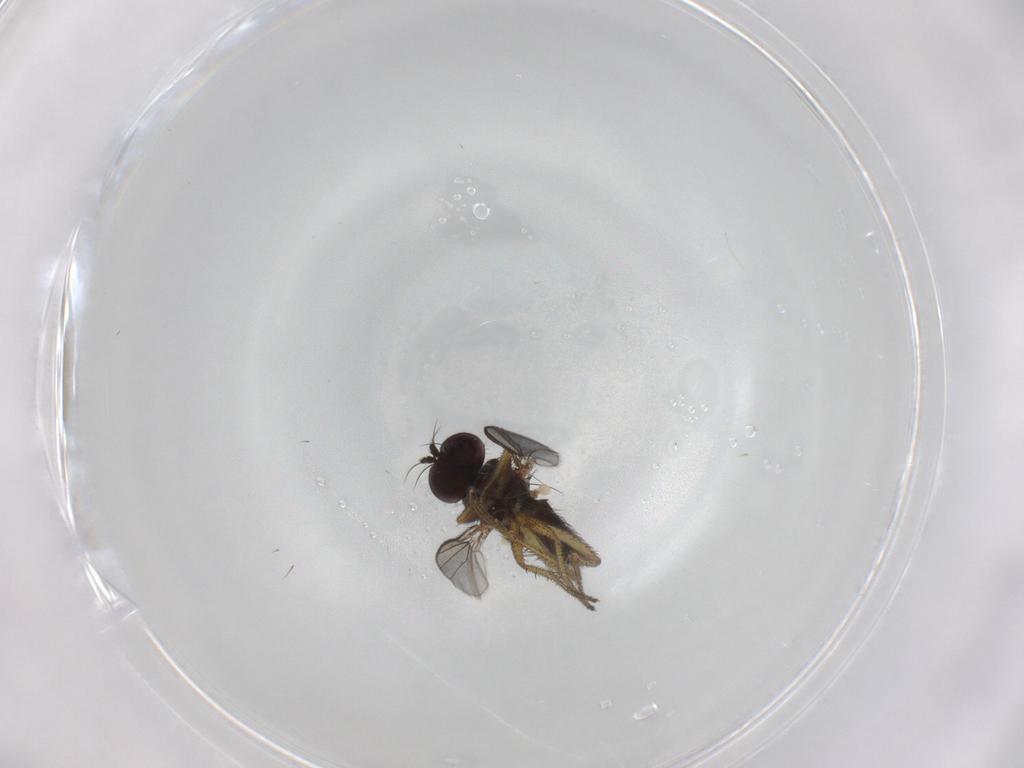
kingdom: Animalia
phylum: Arthropoda
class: Insecta
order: Diptera
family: Chironomidae
